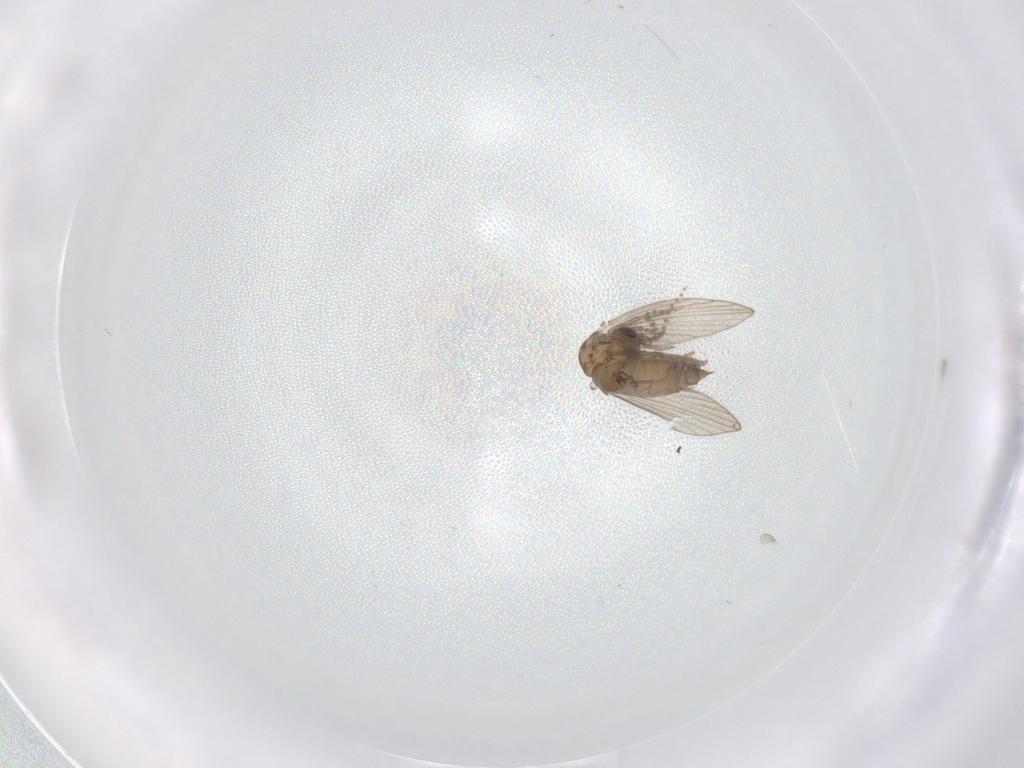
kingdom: Animalia
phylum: Arthropoda
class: Insecta
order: Diptera
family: Psychodidae
